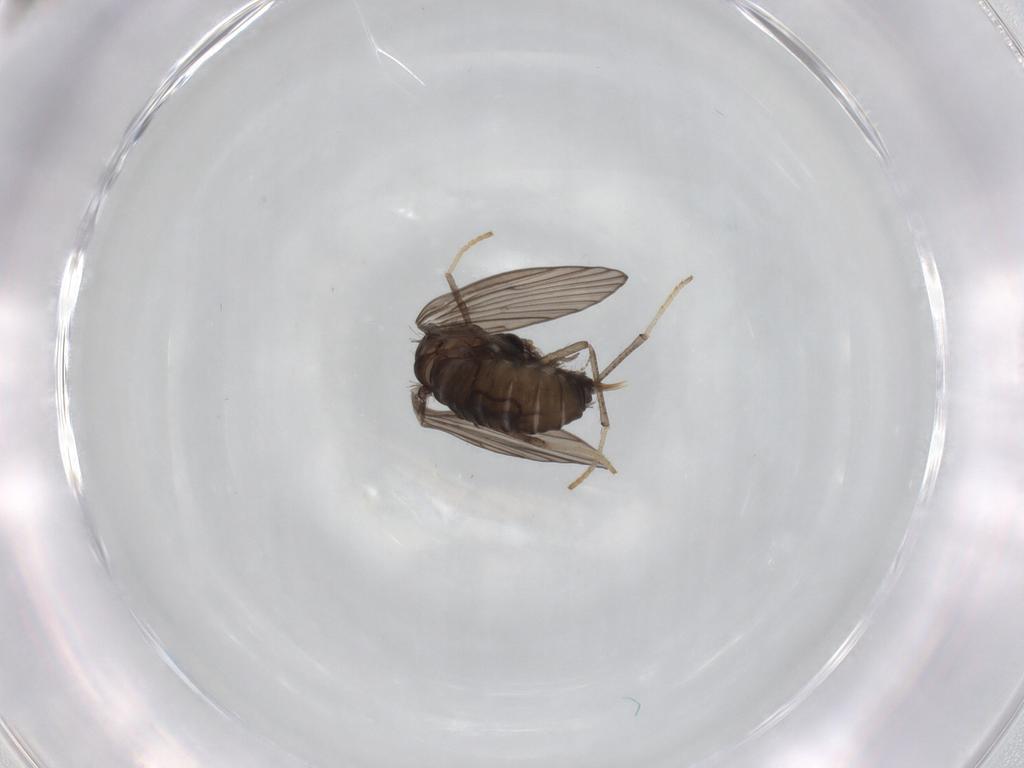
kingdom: Animalia
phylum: Arthropoda
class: Insecta
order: Diptera
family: Psychodidae
